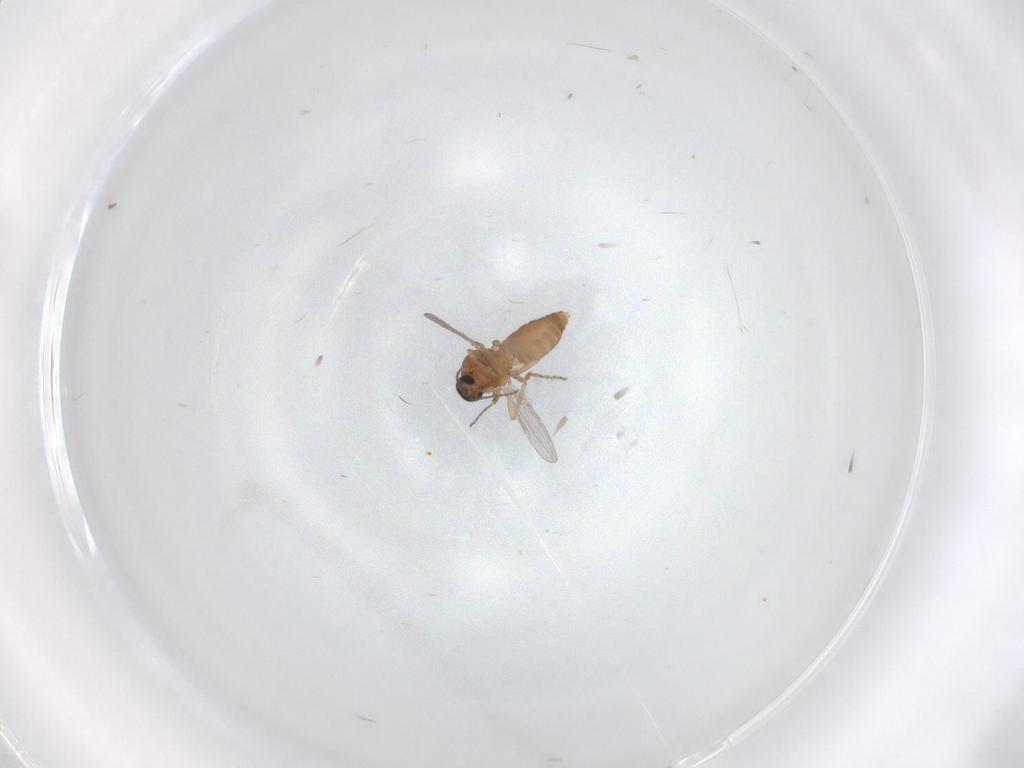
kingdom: Animalia
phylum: Arthropoda
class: Insecta
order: Diptera
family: Ceratopogonidae
